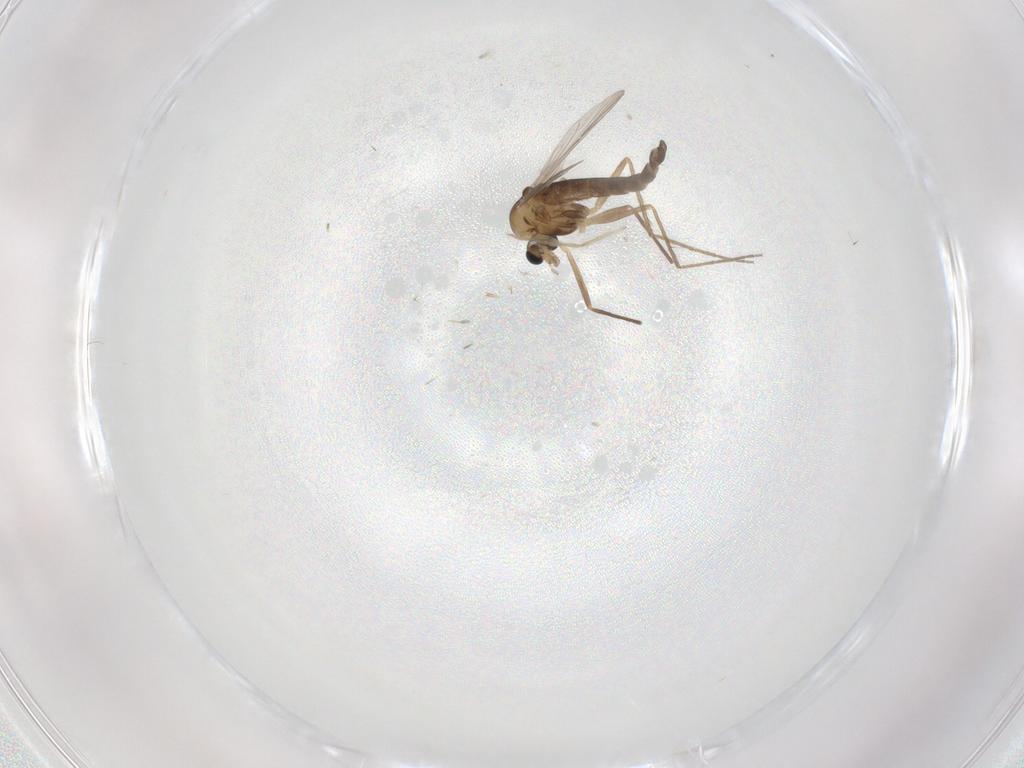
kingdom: Animalia
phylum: Arthropoda
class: Insecta
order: Diptera
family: Chironomidae
